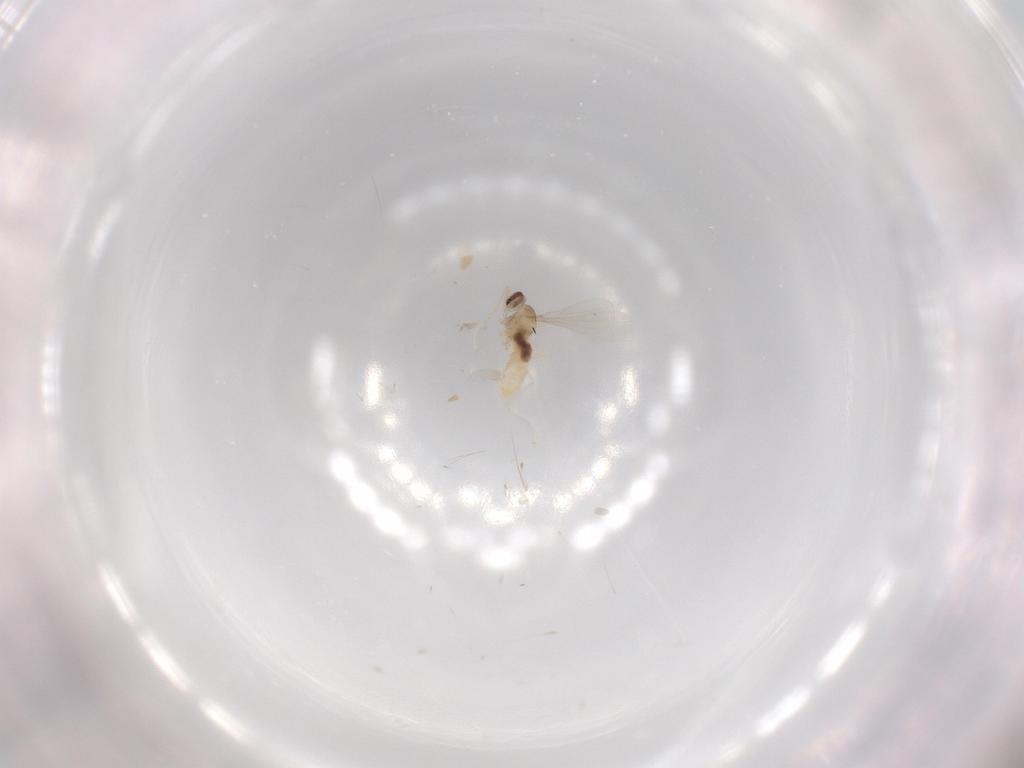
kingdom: Animalia
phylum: Arthropoda
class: Insecta
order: Diptera
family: Cecidomyiidae
